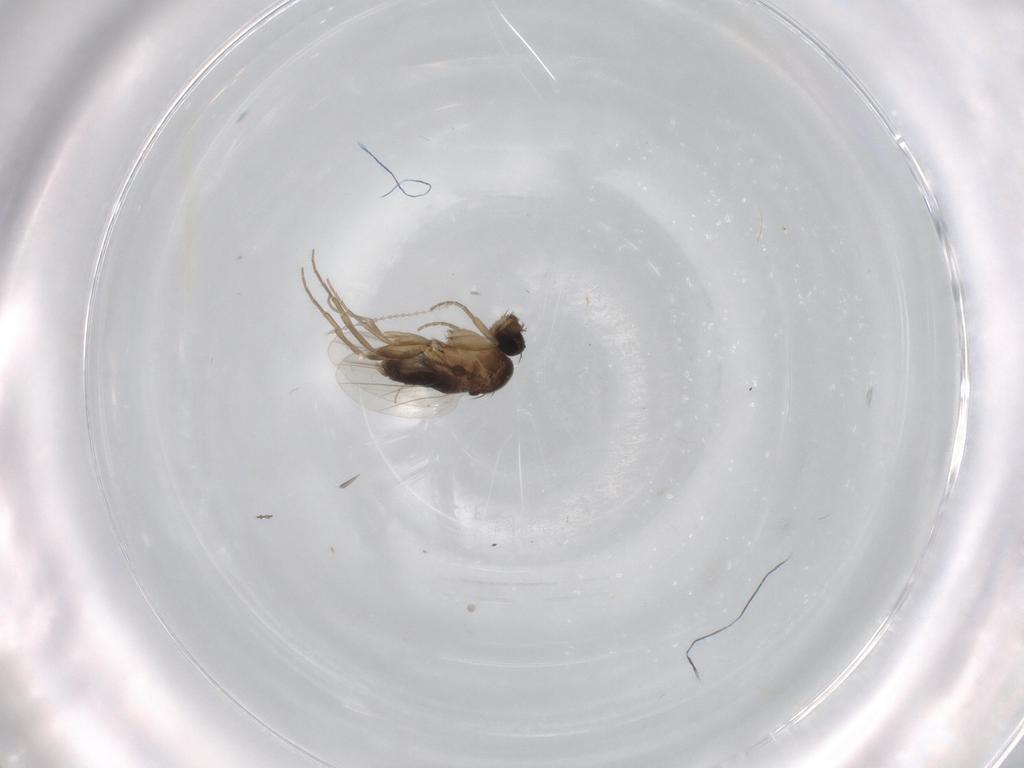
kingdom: Animalia
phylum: Arthropoda
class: Insecta
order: Diptera
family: Phoridae
